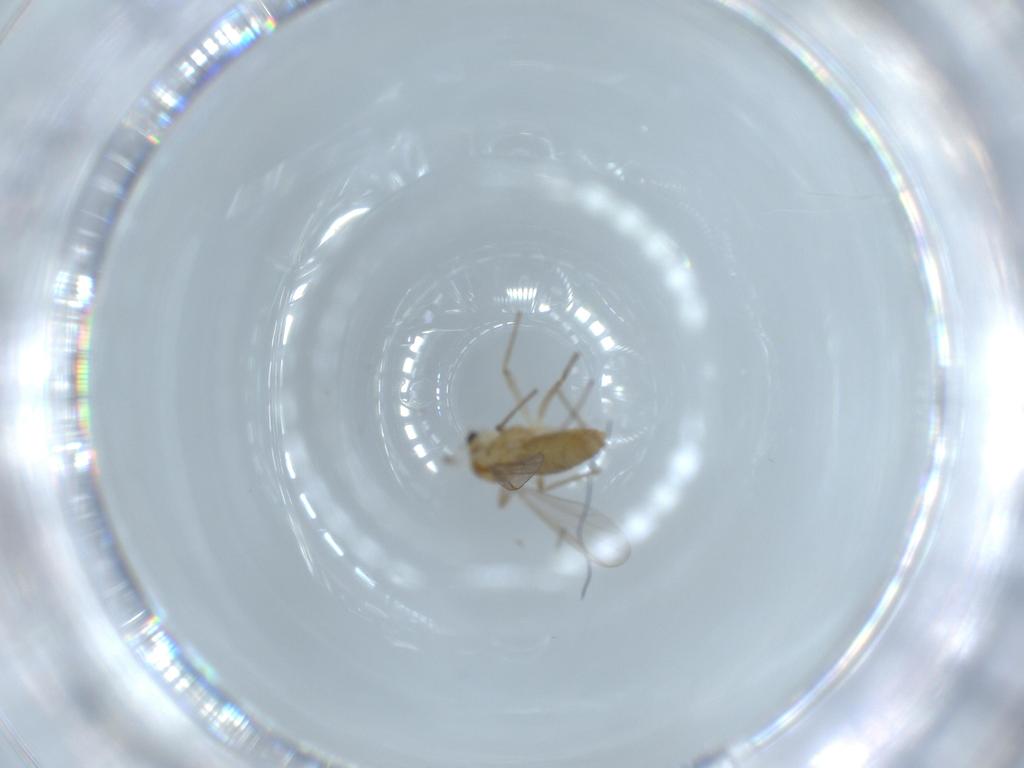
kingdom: Animalia
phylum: Arthropoda
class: Insecta
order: Diptera
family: Chironomidae
